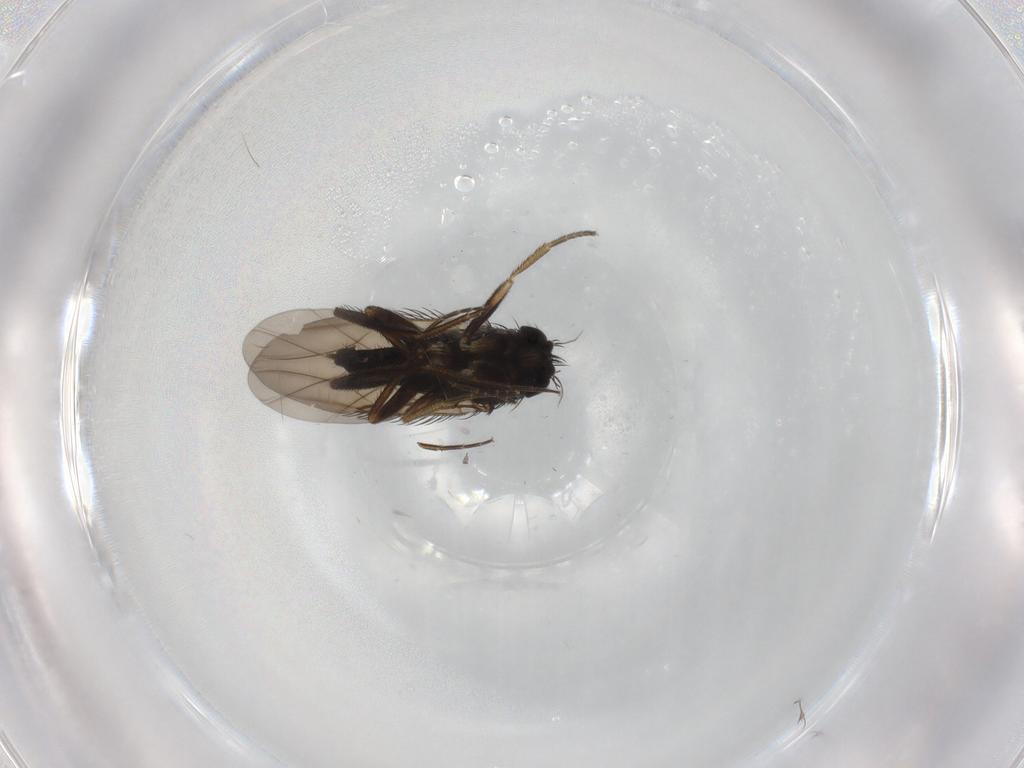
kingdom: Animalia
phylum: Arthropoda
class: Insecta
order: Diptera
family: Phoridae
